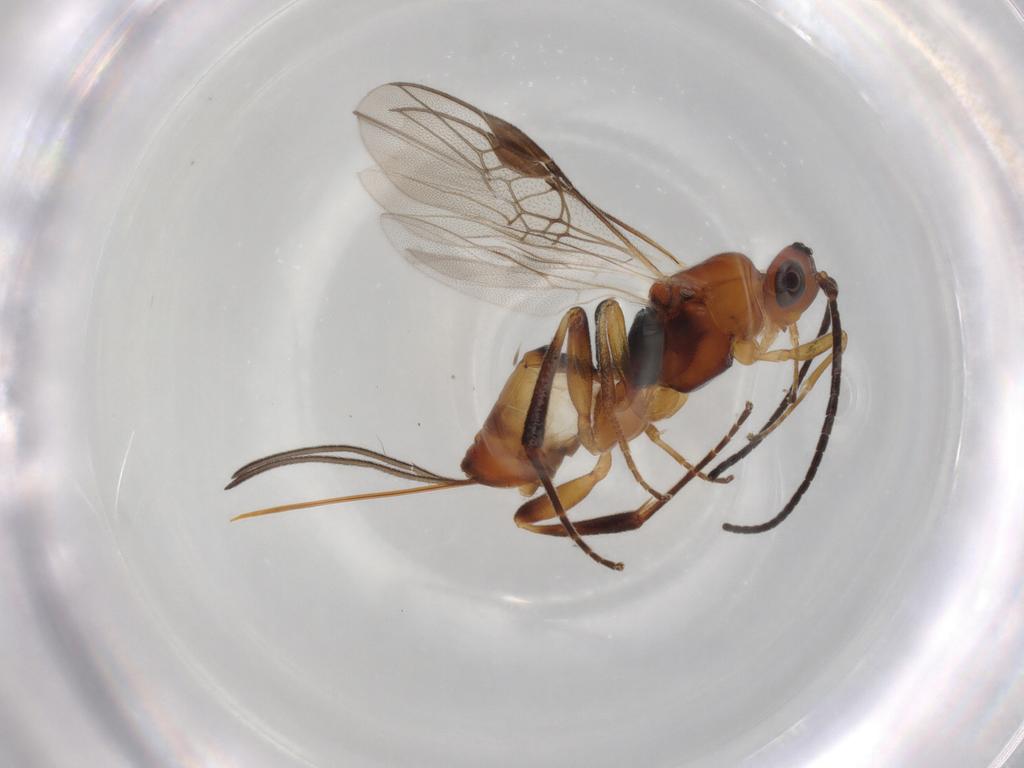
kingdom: Animalia
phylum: Arthropoda
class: Insecta
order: Hymenoptera
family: Braconidae
